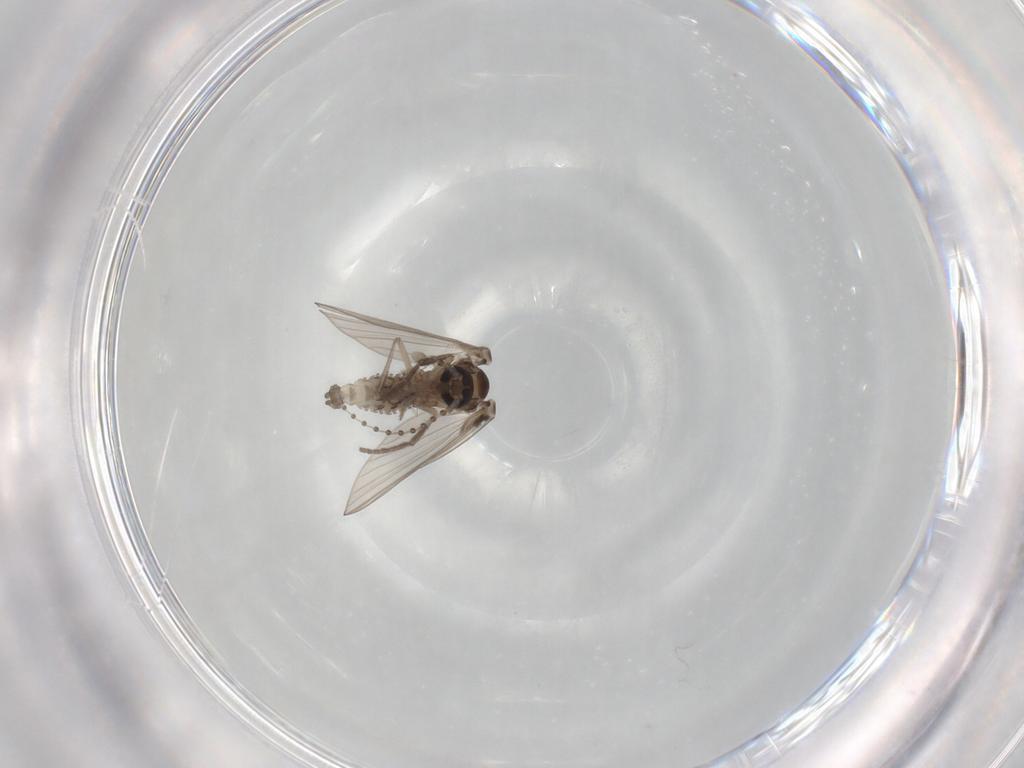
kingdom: Animalia
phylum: Arthropoda
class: Insecta
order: Diptera
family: Psychodidae
